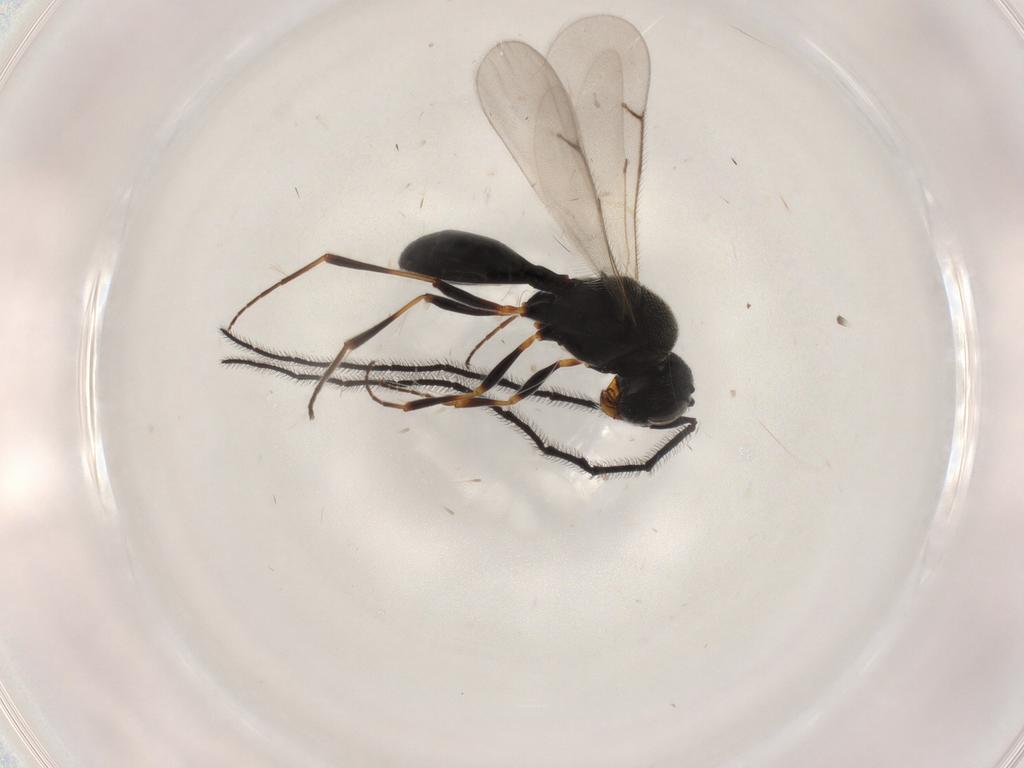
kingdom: Animalia
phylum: Arthropoda
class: Insecta
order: Hymenoptera
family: Scelionidae
